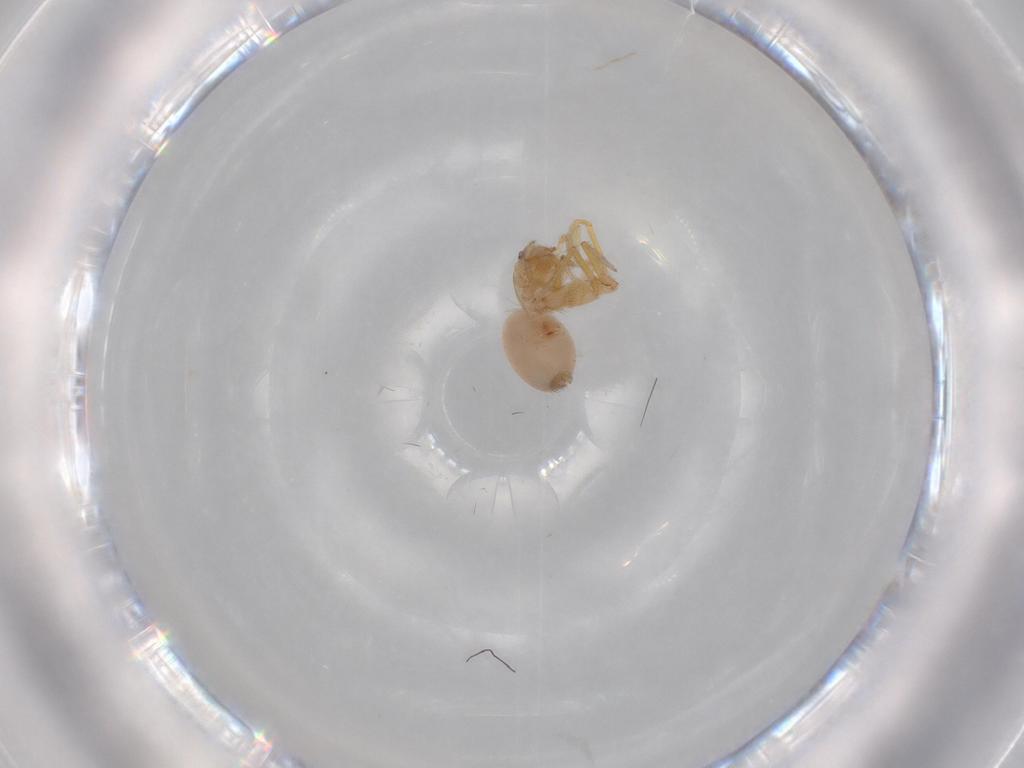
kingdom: Animalia
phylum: Arthropoda
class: Arachnida
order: Araneae
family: Oonopidae
